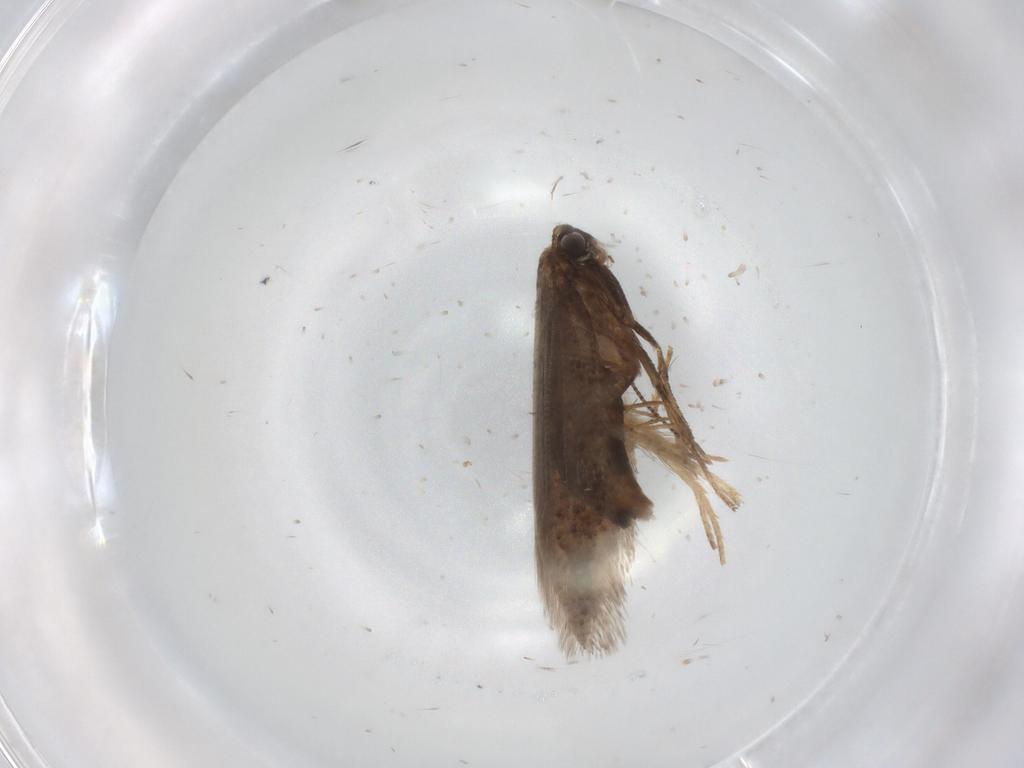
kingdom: Animalia
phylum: Arthropoda
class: Insecta
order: Lepidoptera
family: Nepticulidae
